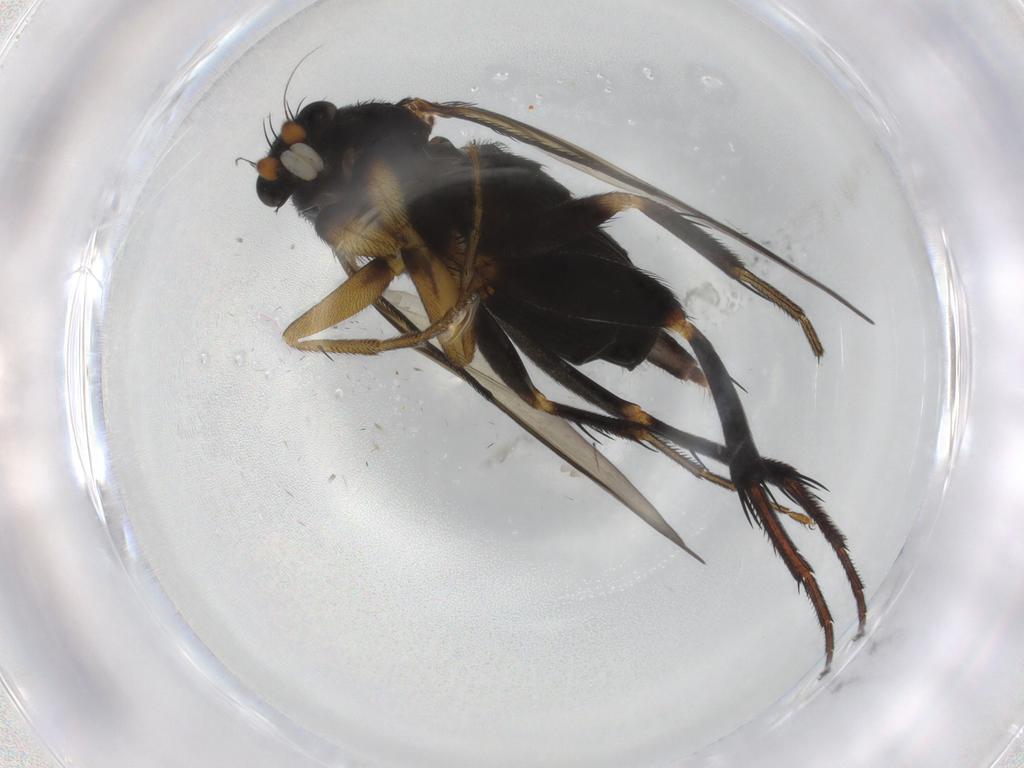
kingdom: Animalia
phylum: Arthropoda
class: Insecta
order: Diptera
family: Phoridae
